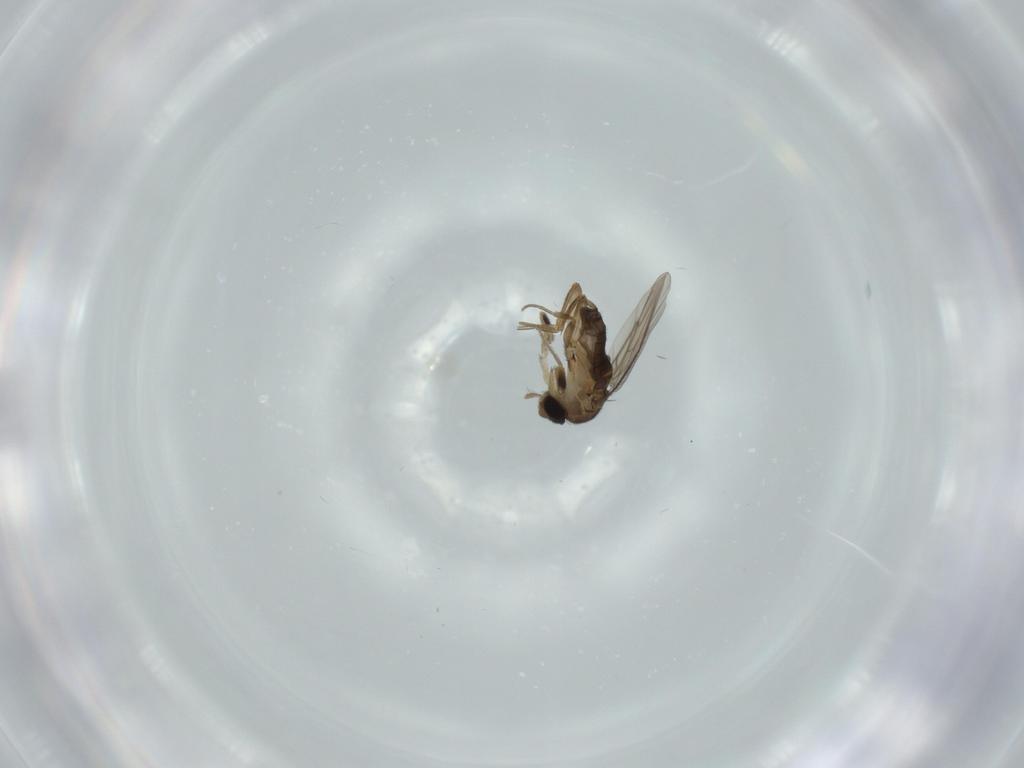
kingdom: Animalia
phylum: Arthropoda
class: Insecta
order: Diptera
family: Phoridae
